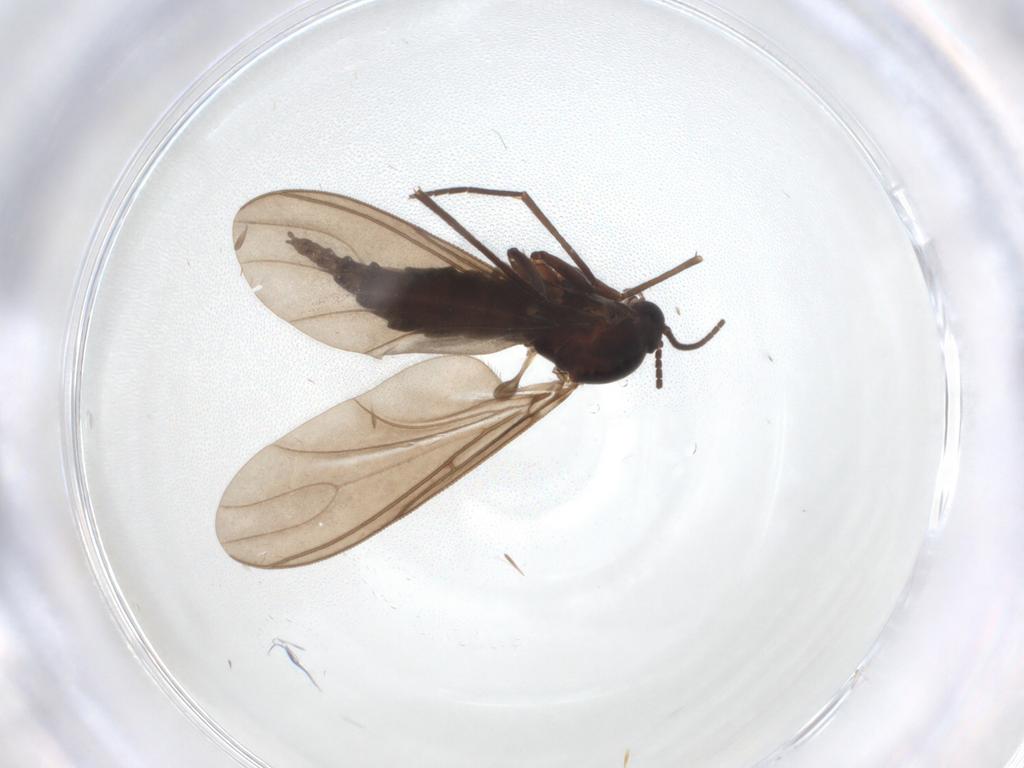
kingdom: Animalia
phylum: Arthropoda
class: Insecta
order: Diptera
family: Sciaridae
